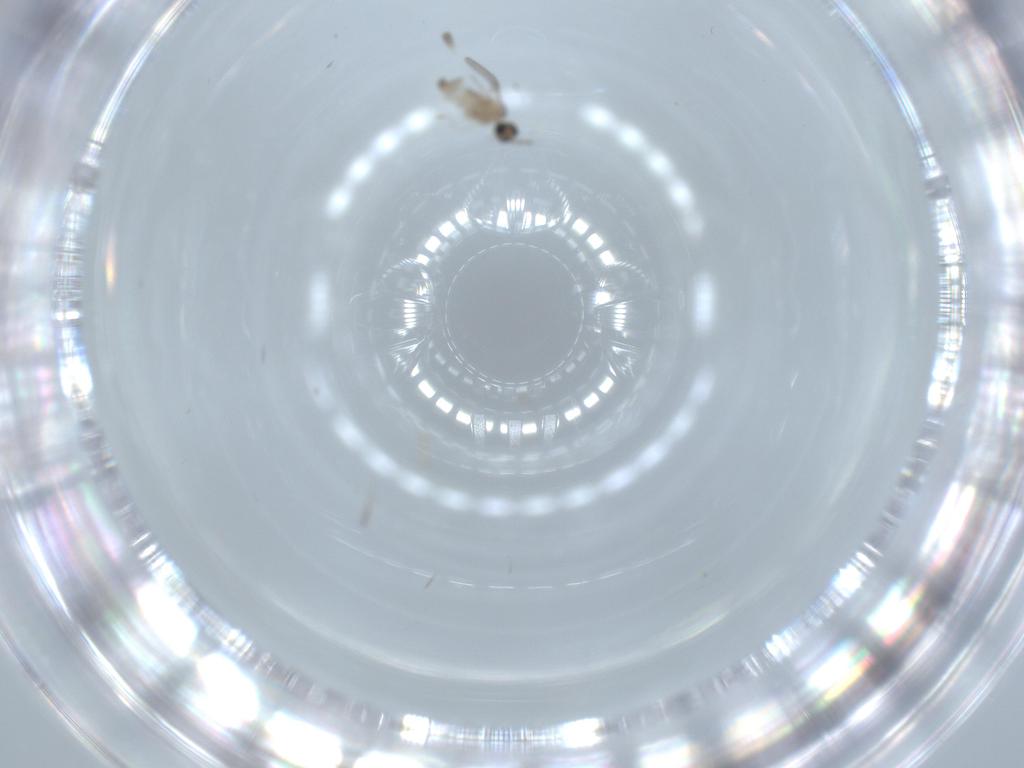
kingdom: Animalia
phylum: Arthropoda
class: Insecta
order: Diptera
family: Cecidomyiidae
